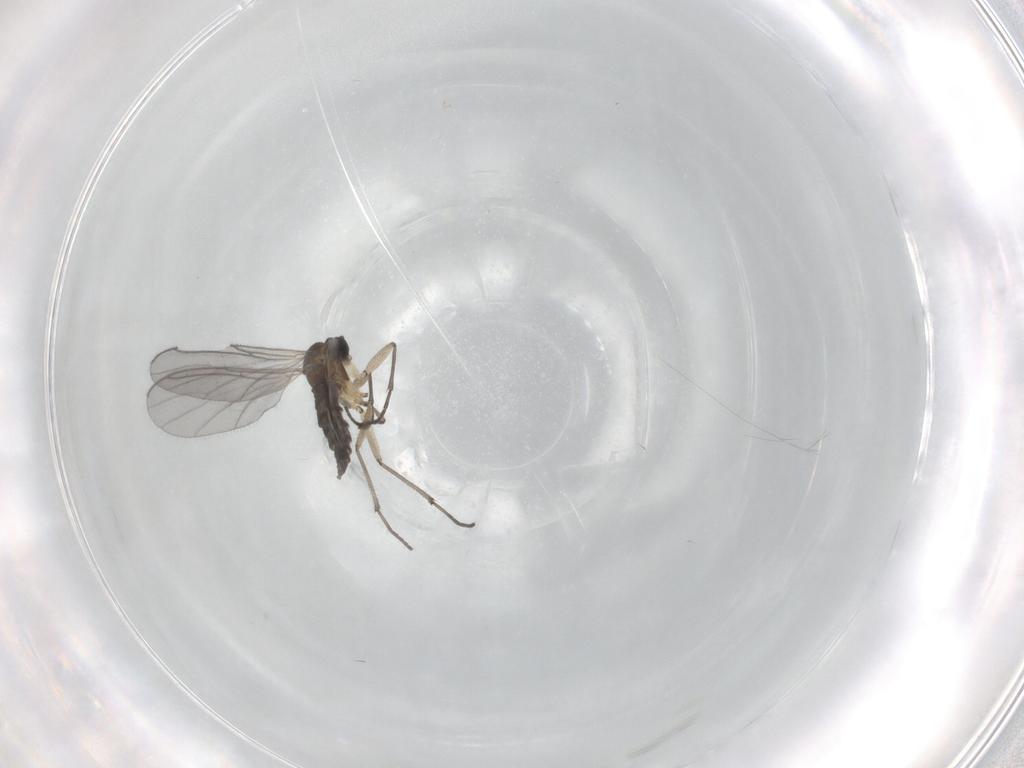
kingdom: Animalia
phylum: Arthropoda
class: Insecta
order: Diptera
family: Sciaridae
